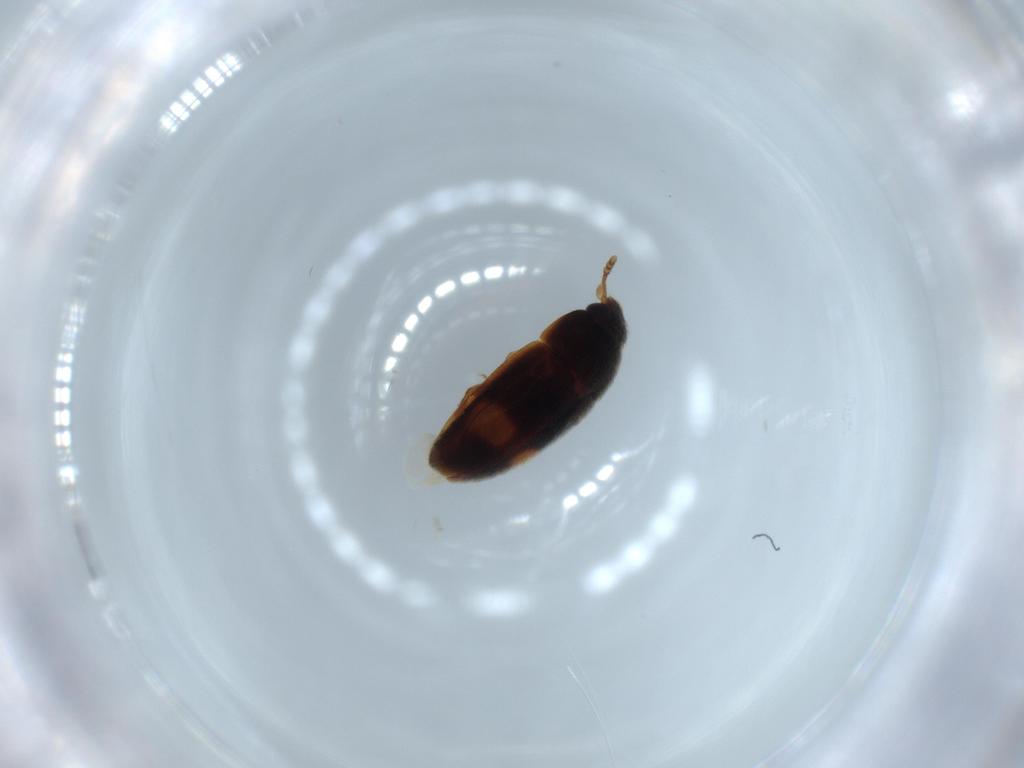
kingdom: Animalia
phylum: Arthropoda
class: Insecta
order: Coleoptera
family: Mycetophagidae
